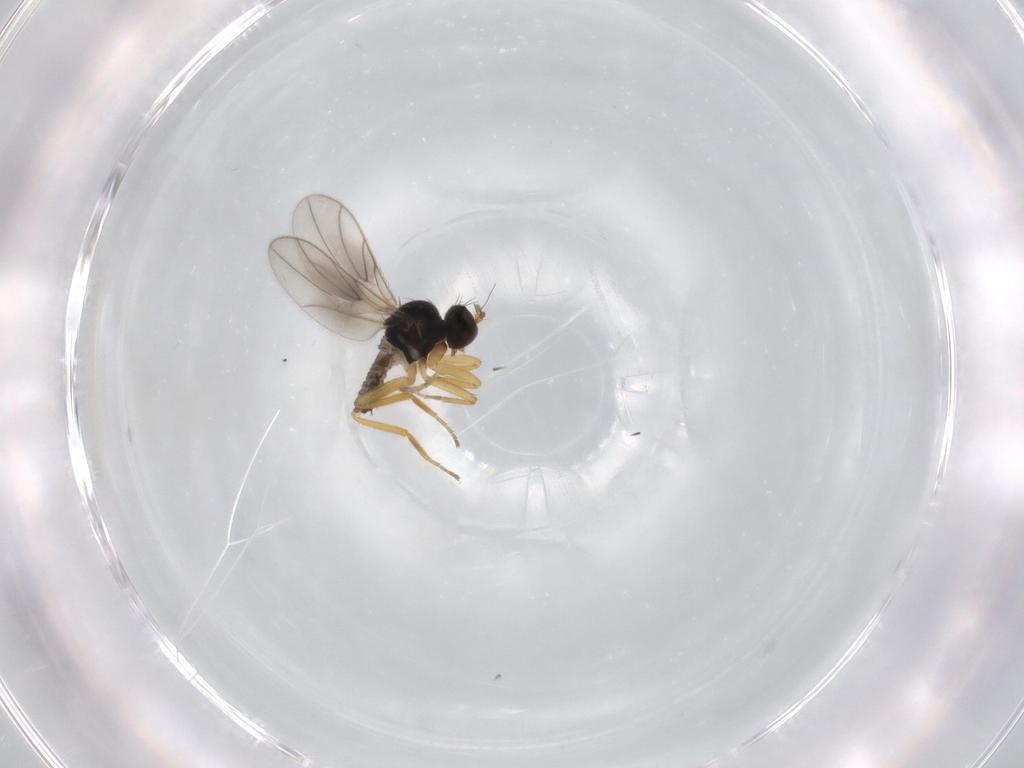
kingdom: Animalia
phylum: Arthropoda
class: Insecta
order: Diptera
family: Hybotidae
